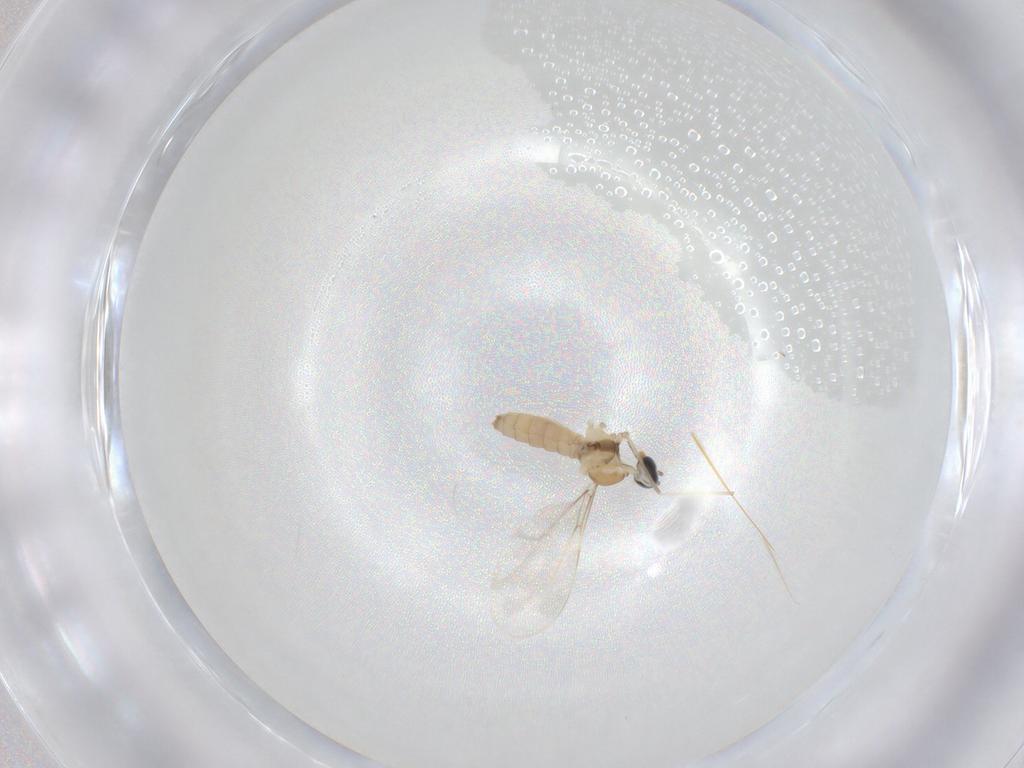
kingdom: Animalia
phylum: Arthropoda
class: Insecta
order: Diptera
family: Cecidomyiidae
